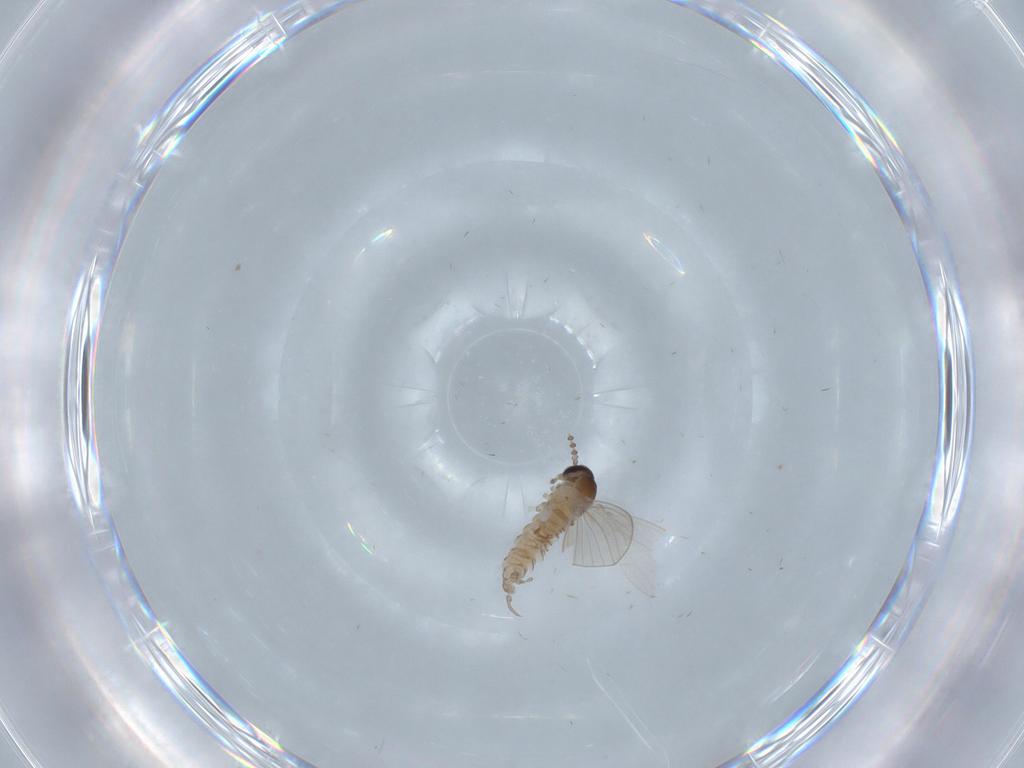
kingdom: Animalia
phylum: Arthropoda
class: Insecta
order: Diptera
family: Psychodidae
